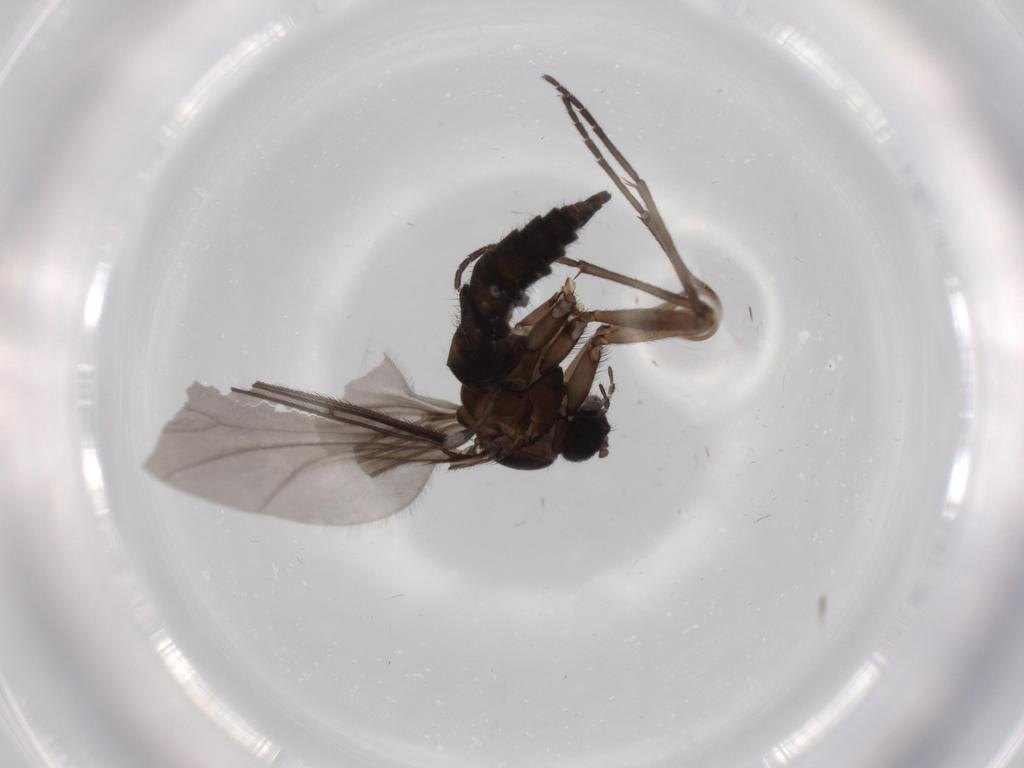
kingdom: Animalia
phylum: Arthropoda
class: Insecta
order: Diptera
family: Sciaridae
